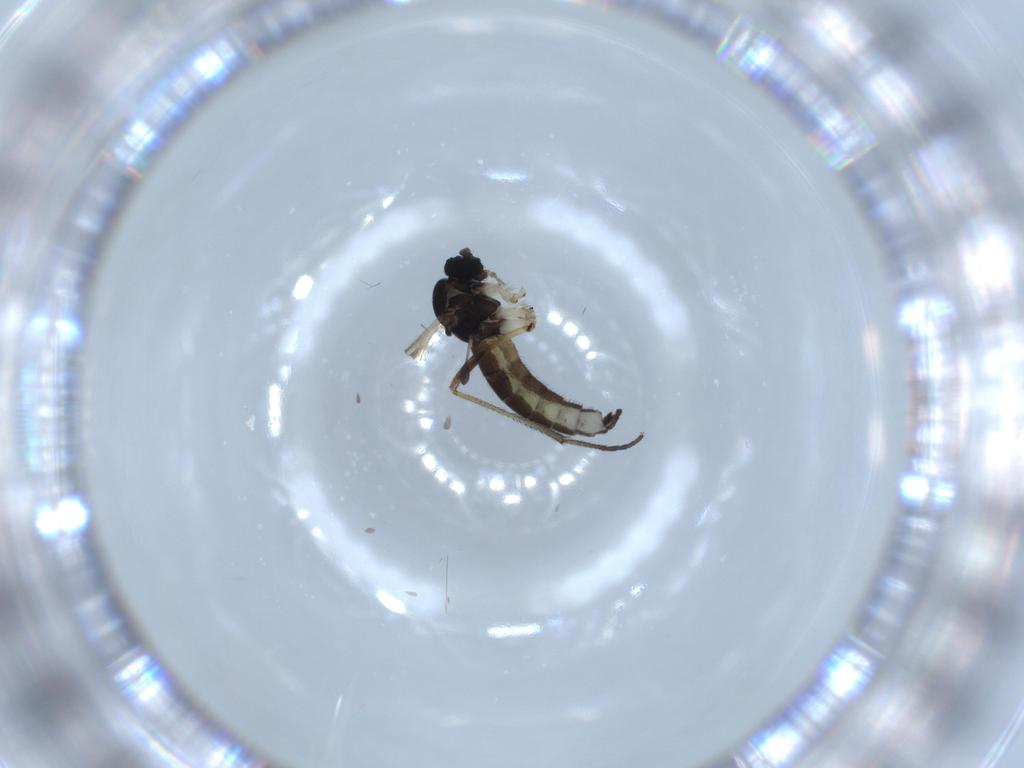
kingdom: Animalia
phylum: Arthropoda
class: Insecta
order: Diptera
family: Sciaridae
